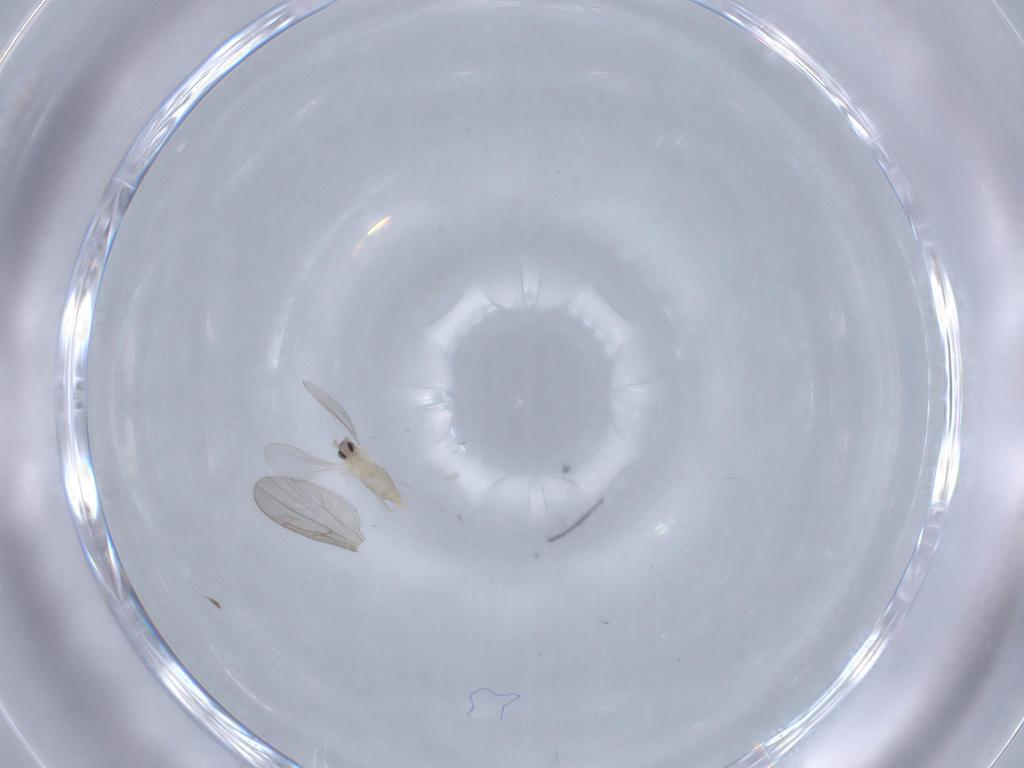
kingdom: Animalia
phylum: Arthropoda
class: Insecta
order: Diptera
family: Cecidomyiidae
